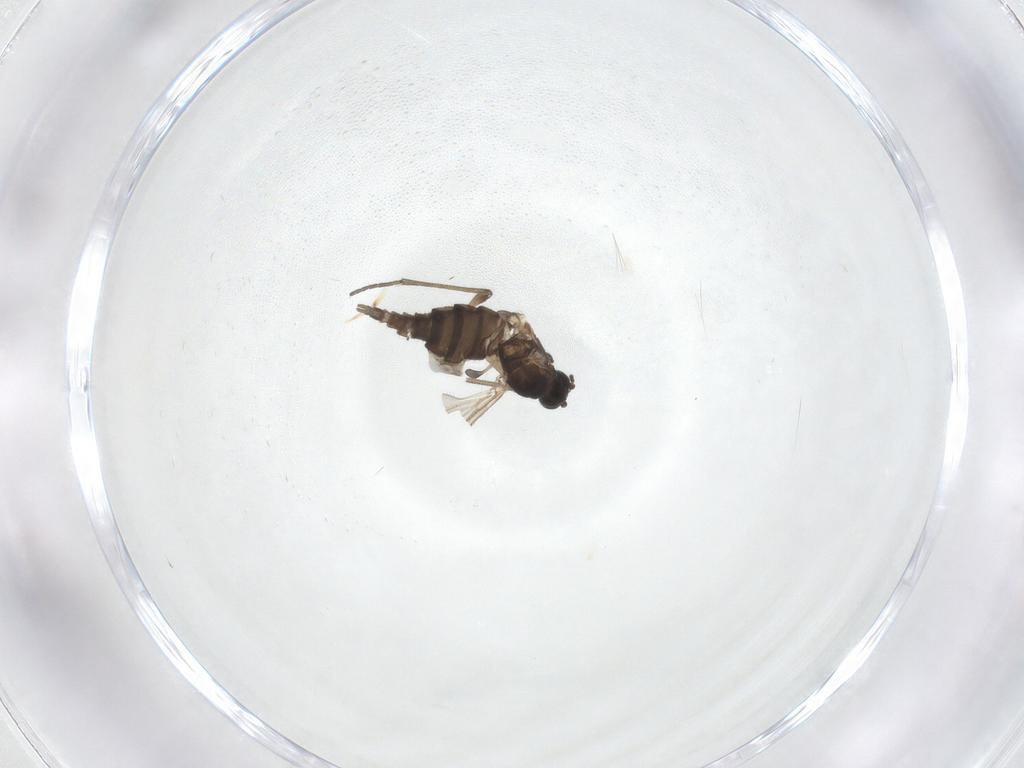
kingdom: Animalia
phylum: Arthropoda
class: Insecta
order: Diptera
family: Sciaridae
